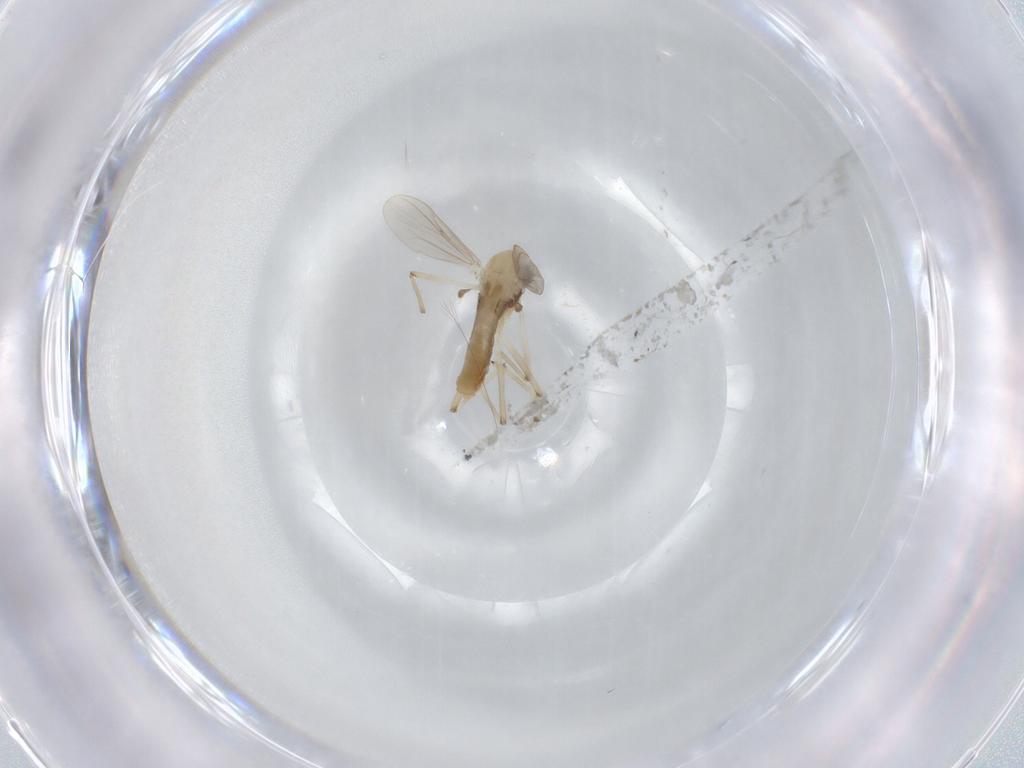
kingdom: Animalia
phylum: Arthropoda
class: Insecta
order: Diptera
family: Chironomidae
